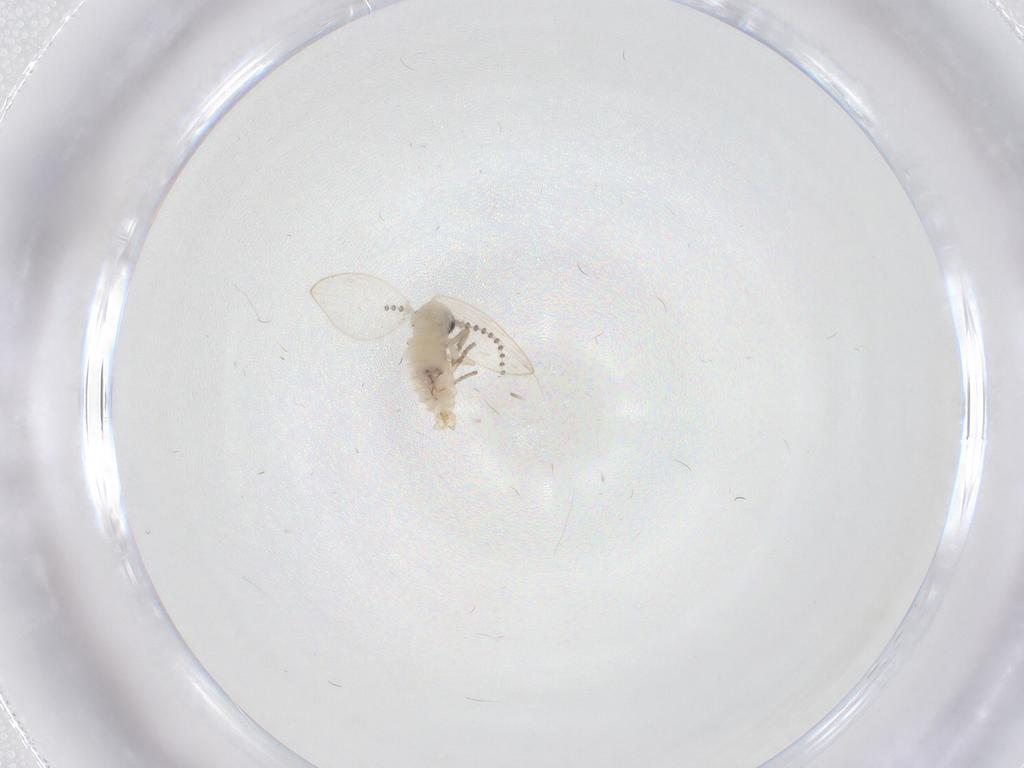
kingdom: Animalia
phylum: Arthropoda
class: Insecta
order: Diptera
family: Psychodidae
